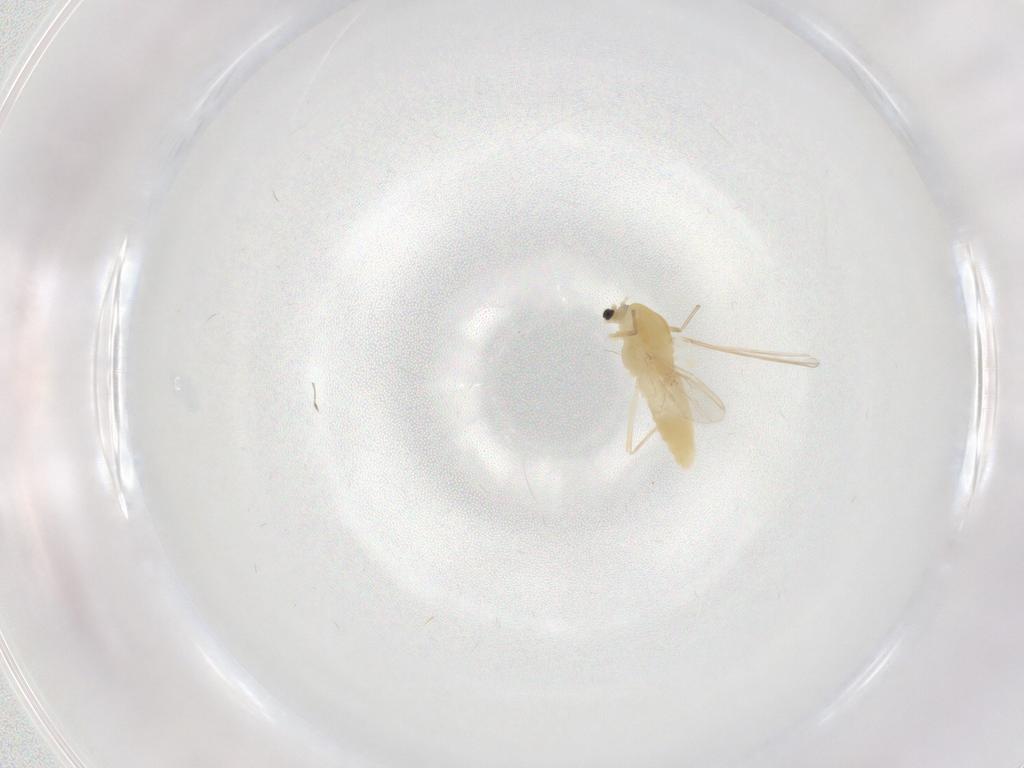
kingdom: Animalia
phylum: Arthropoda
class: Insecta
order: Diptera
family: Chironomidae
